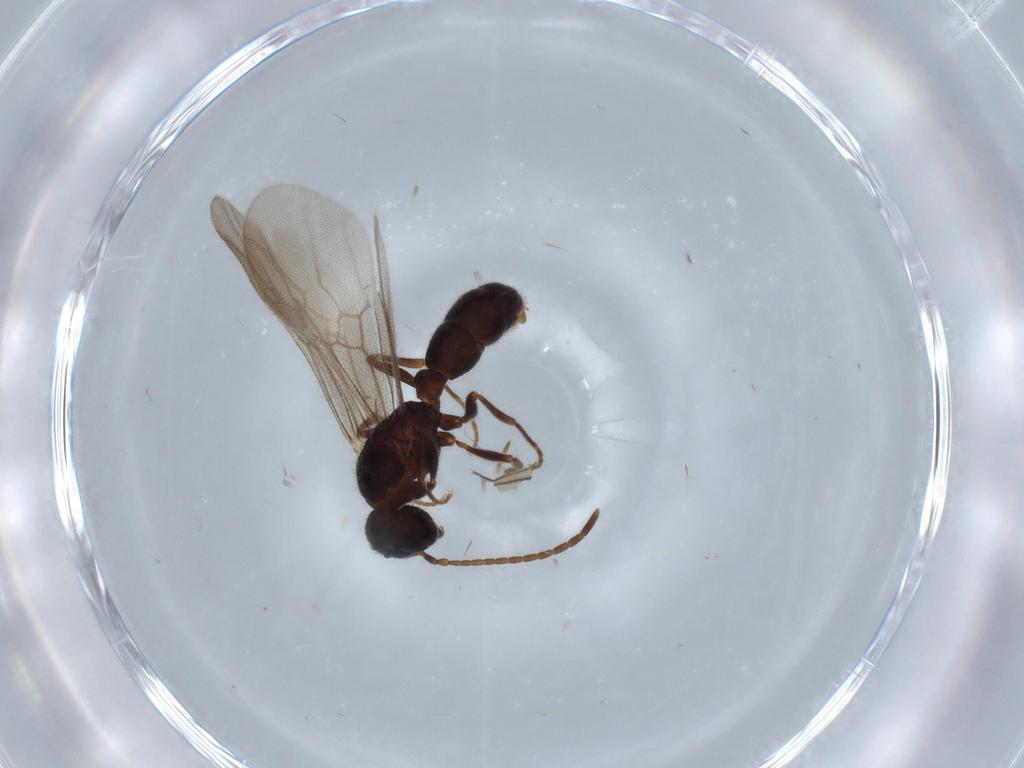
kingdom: Animalia
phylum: Arthropoda
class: Insecta
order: Hymenoptera
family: Formicidae
